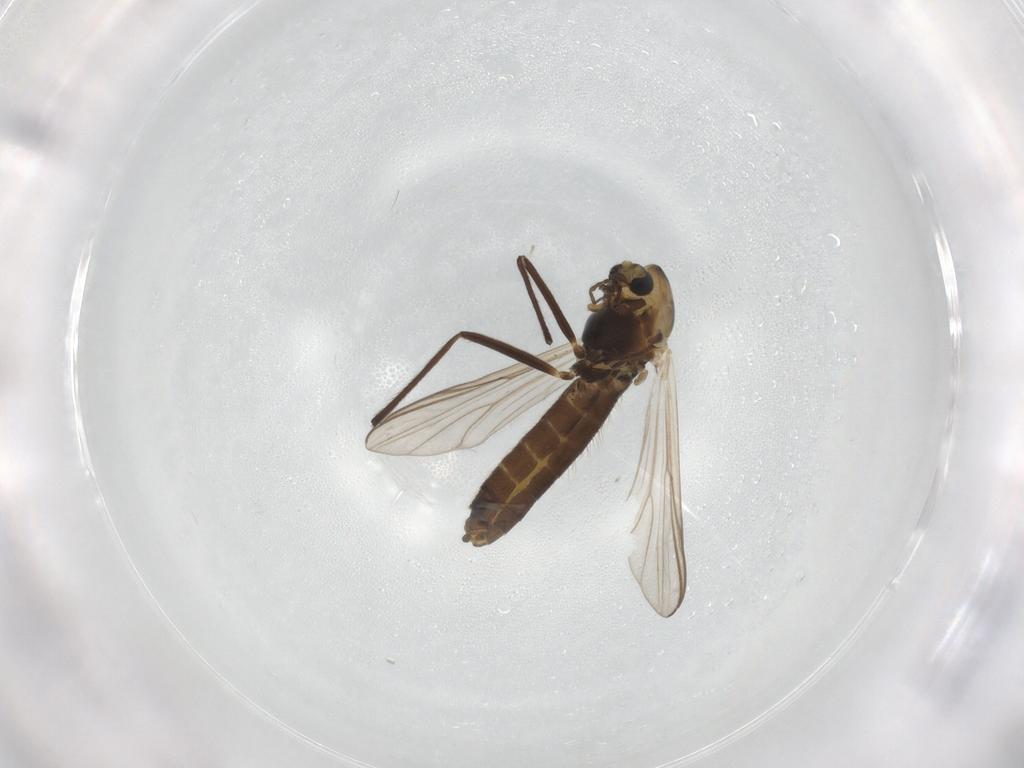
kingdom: Animalia
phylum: Arthropoda
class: Insecta
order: Diptera
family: Chironomidae
